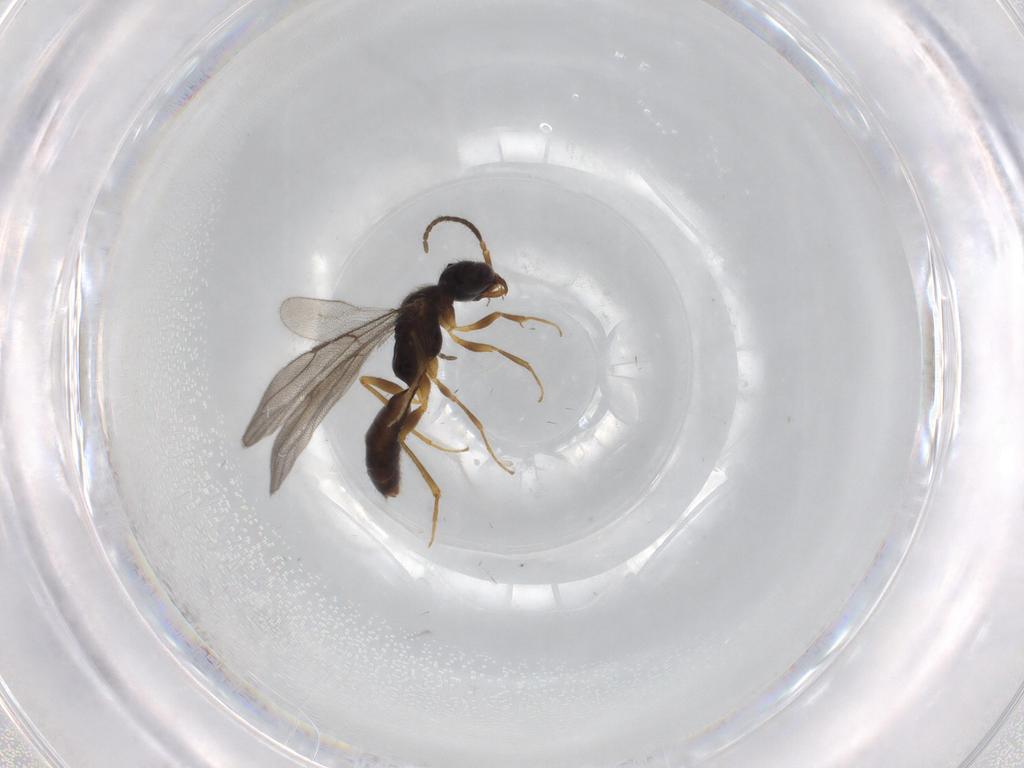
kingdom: Animalia
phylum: Arthropoda
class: Insecta
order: Hymenoptera
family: Bethylidae
